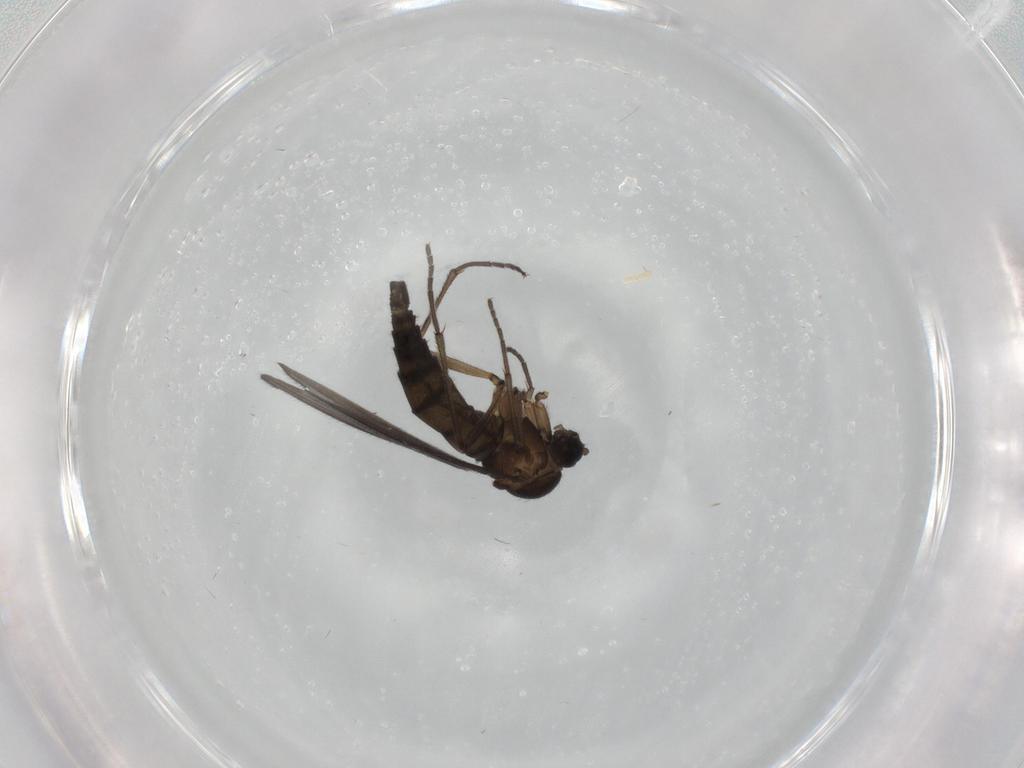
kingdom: Animalia
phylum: Arthropoda
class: Insecta
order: Diptera
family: Sciaridae
